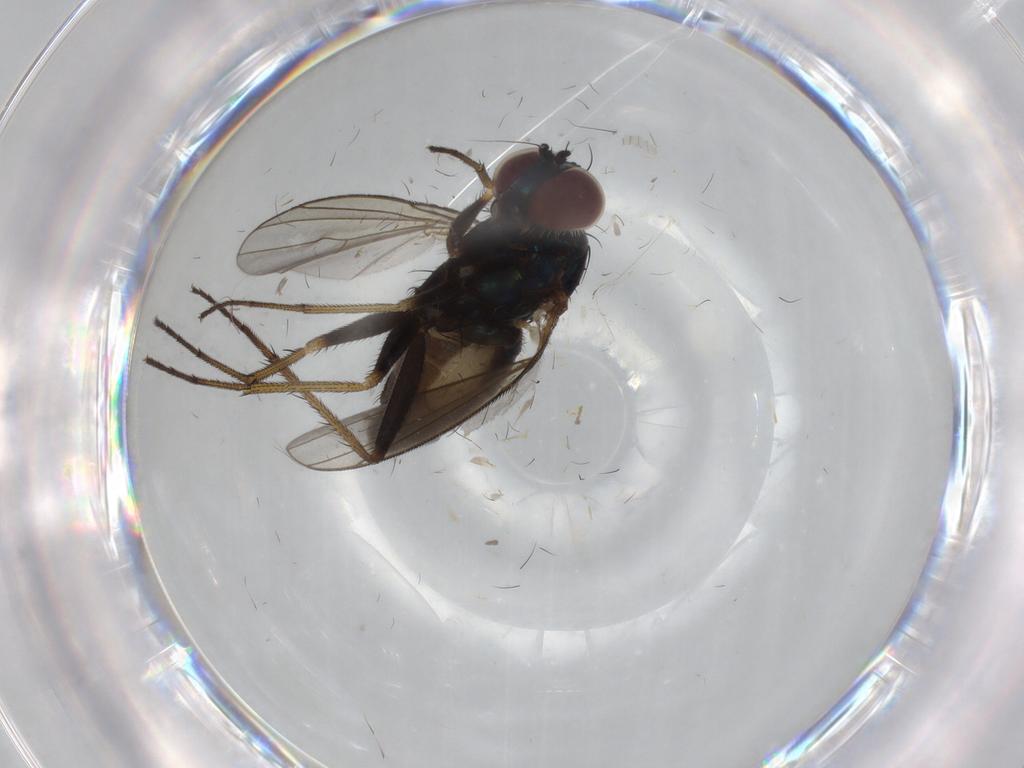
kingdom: Animalia
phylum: Arthropoda
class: Insecta
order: Diptera
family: Dolichopodidae
